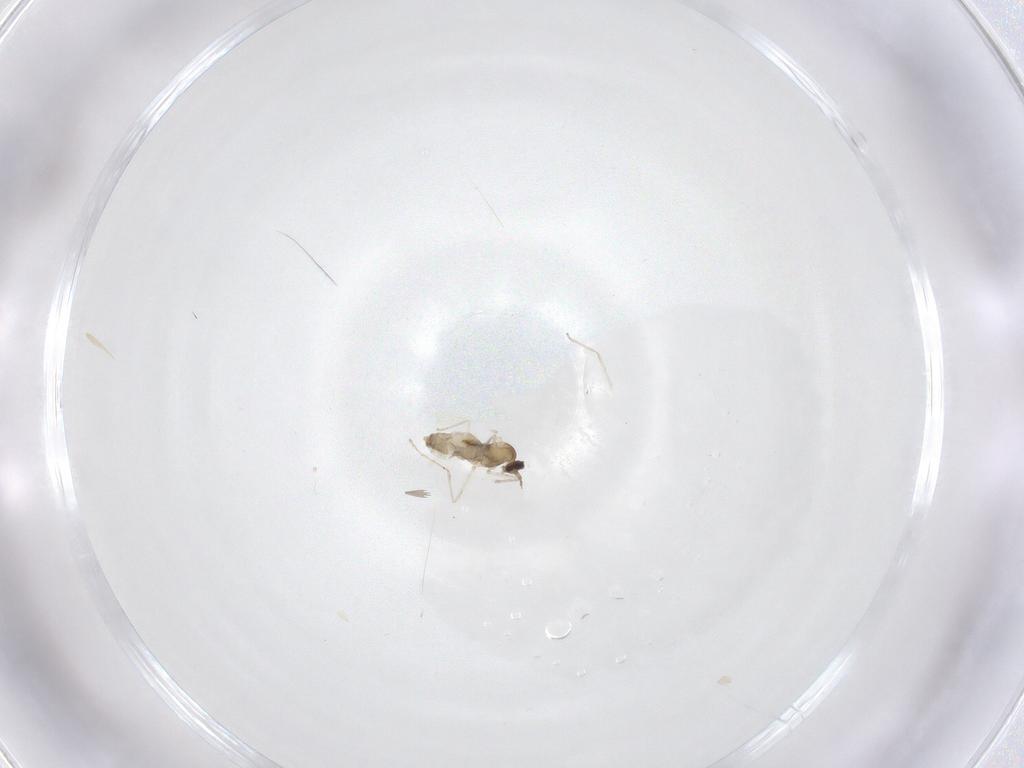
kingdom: Animalia
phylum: Arthropoda
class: Insecta
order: Diptera
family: Cecidomyiidae
